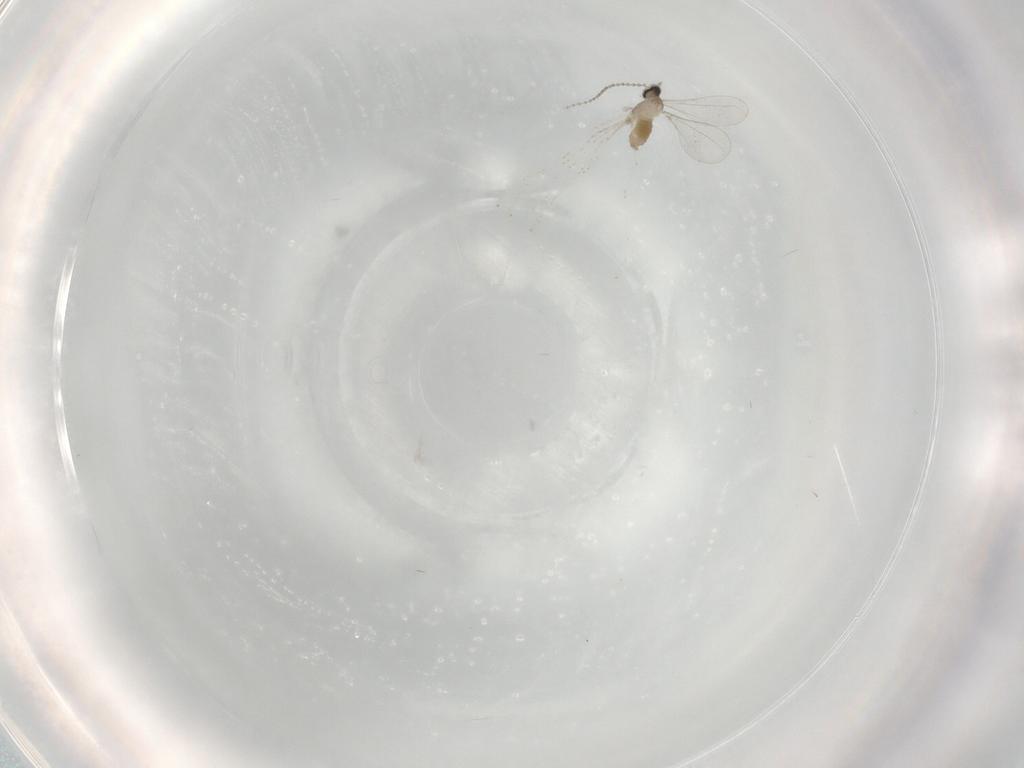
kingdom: Animalia
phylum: Arthropoda
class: Insecta
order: Diptera
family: Cecidomyiidae
